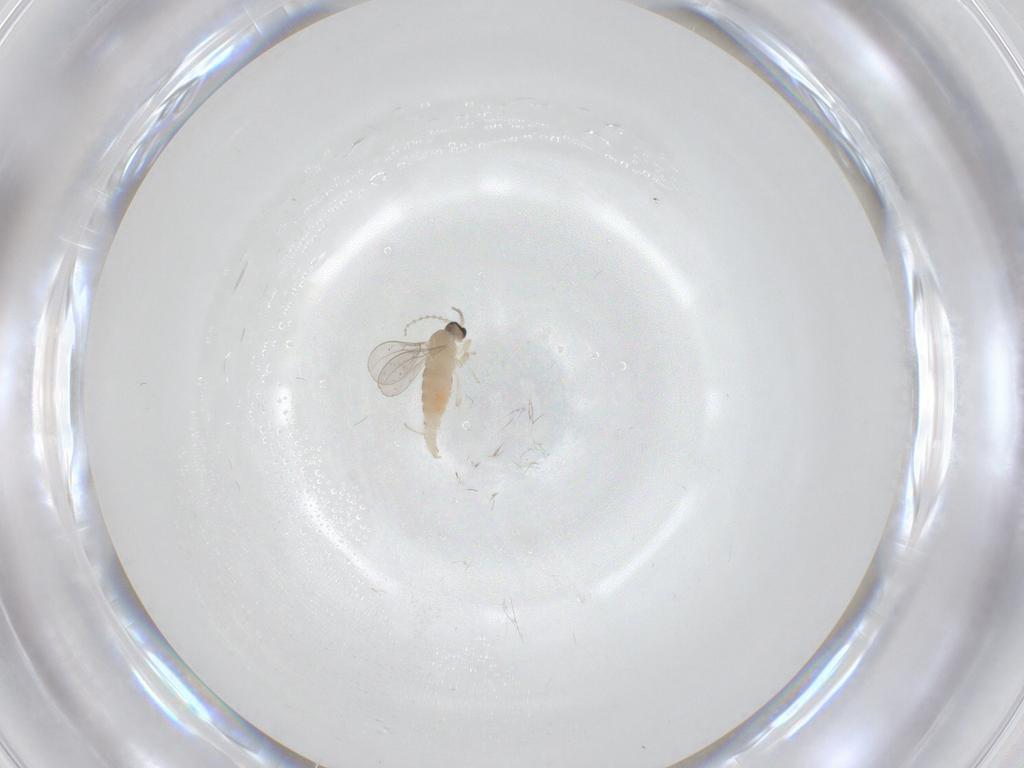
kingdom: Animalia
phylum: Arthropoda
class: Insecta
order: Diptera
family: Cecidomyiidae
